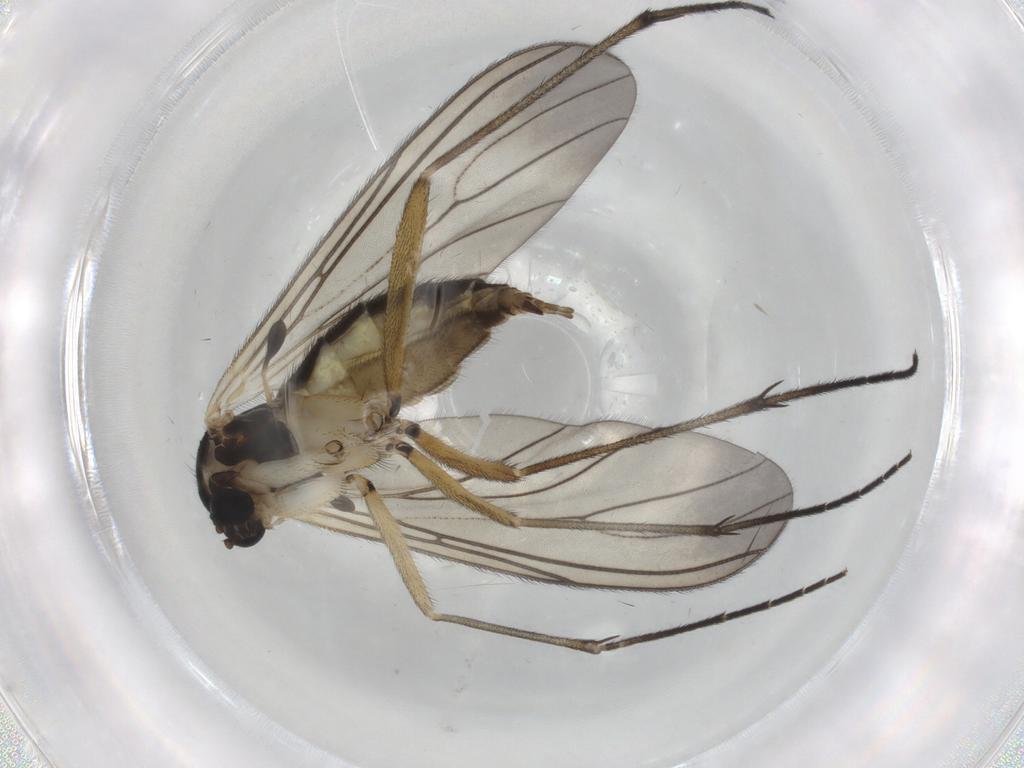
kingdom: Animalia
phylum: Arthropoda
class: Insecta
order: Diptera
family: Sciaridae
